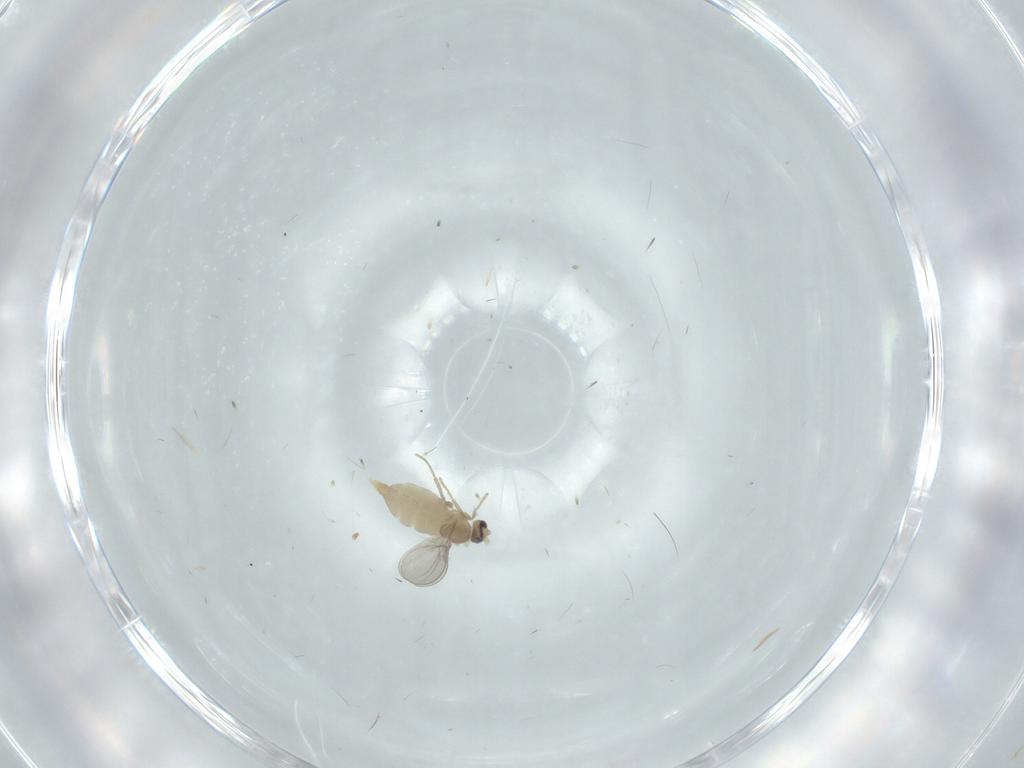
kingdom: Animalia
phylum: Arthropoda
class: Insecta
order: Diptera
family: Cecidomyiidae
